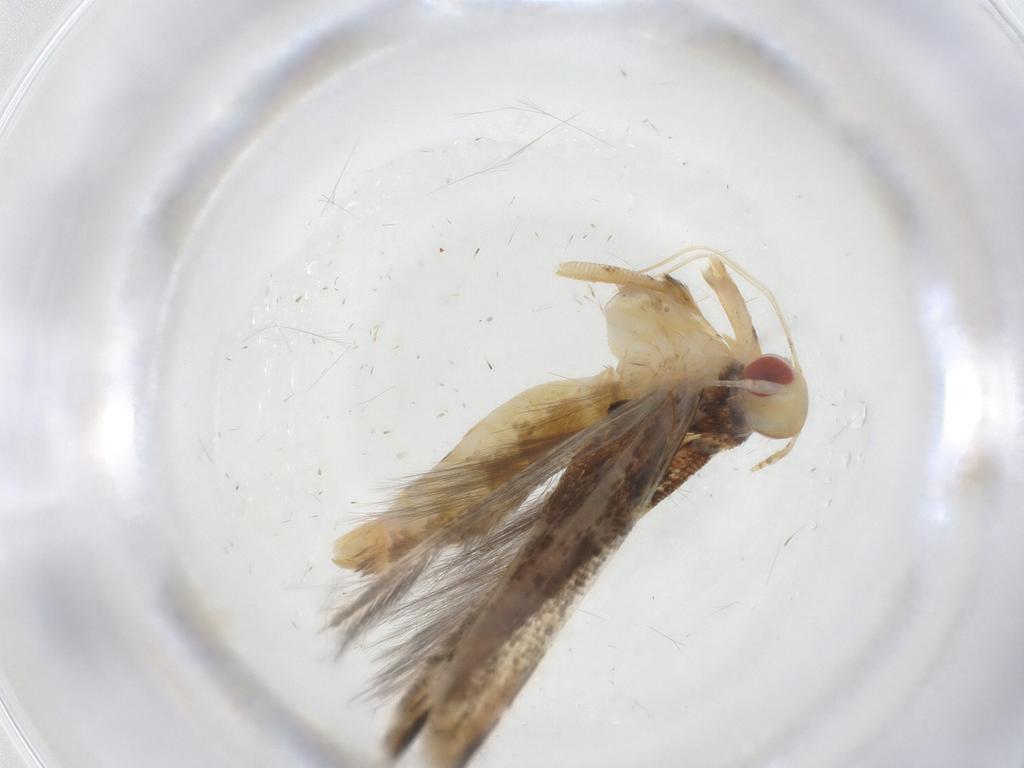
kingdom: Animalia
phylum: Arthropoda
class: Insecta
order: Lepidoptera
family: Cosmopterigidae
